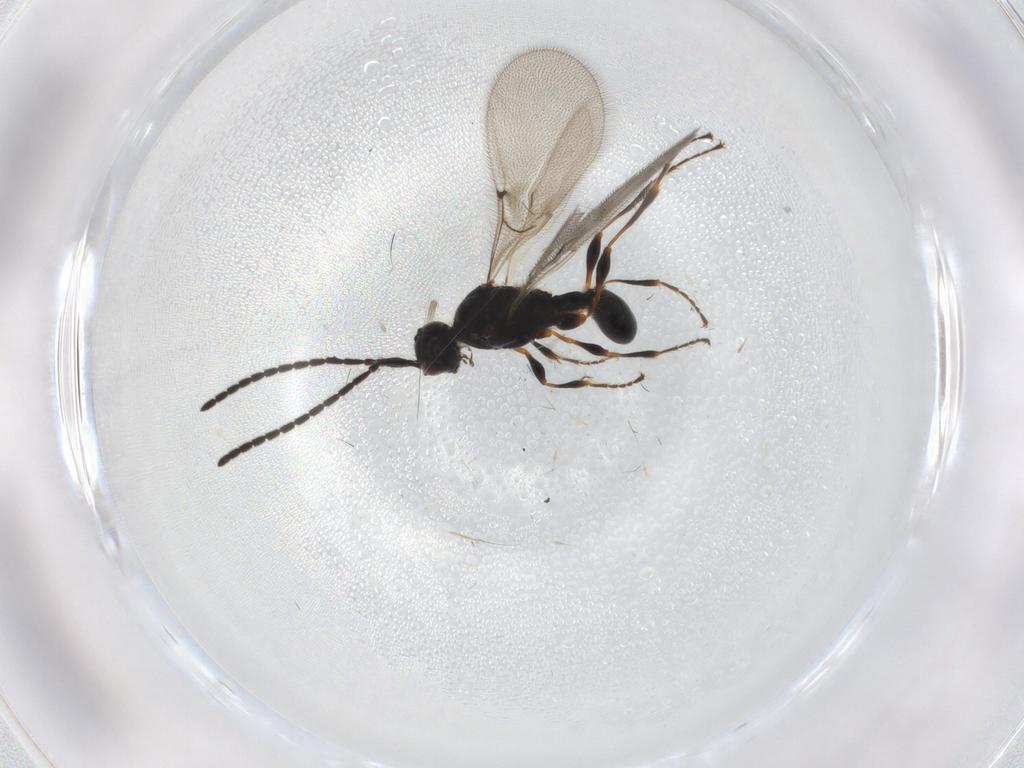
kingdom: Animalia
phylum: Arthropoda
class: Insecta
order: Hymenoptera
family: Diapriidae
